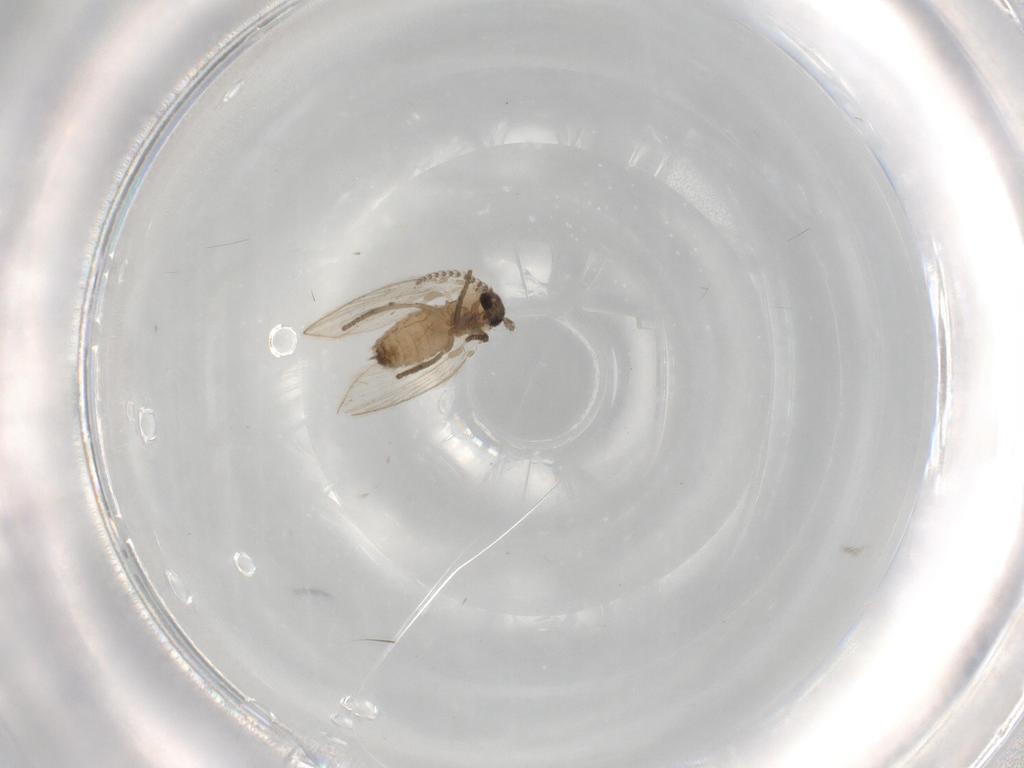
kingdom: Animalia
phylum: Arthropoda
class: Insecta
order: Diptera
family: Psychodidae
